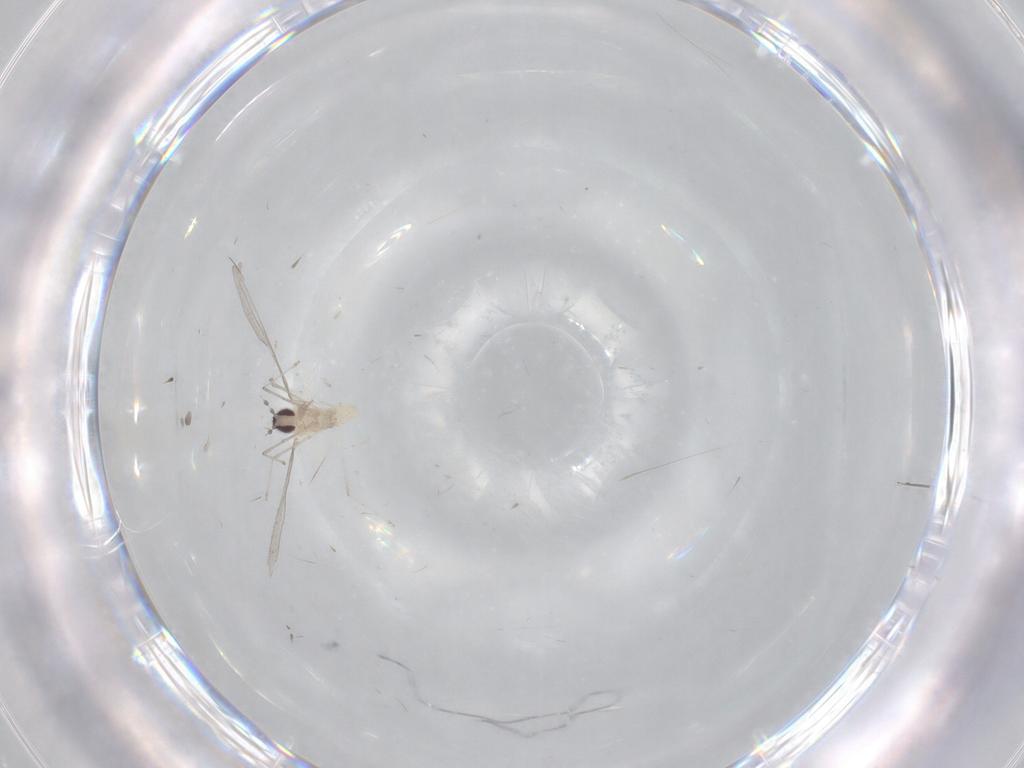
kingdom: Animalia
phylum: Arthropoda
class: Insecta
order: Diptera
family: Cecidomyiidae
